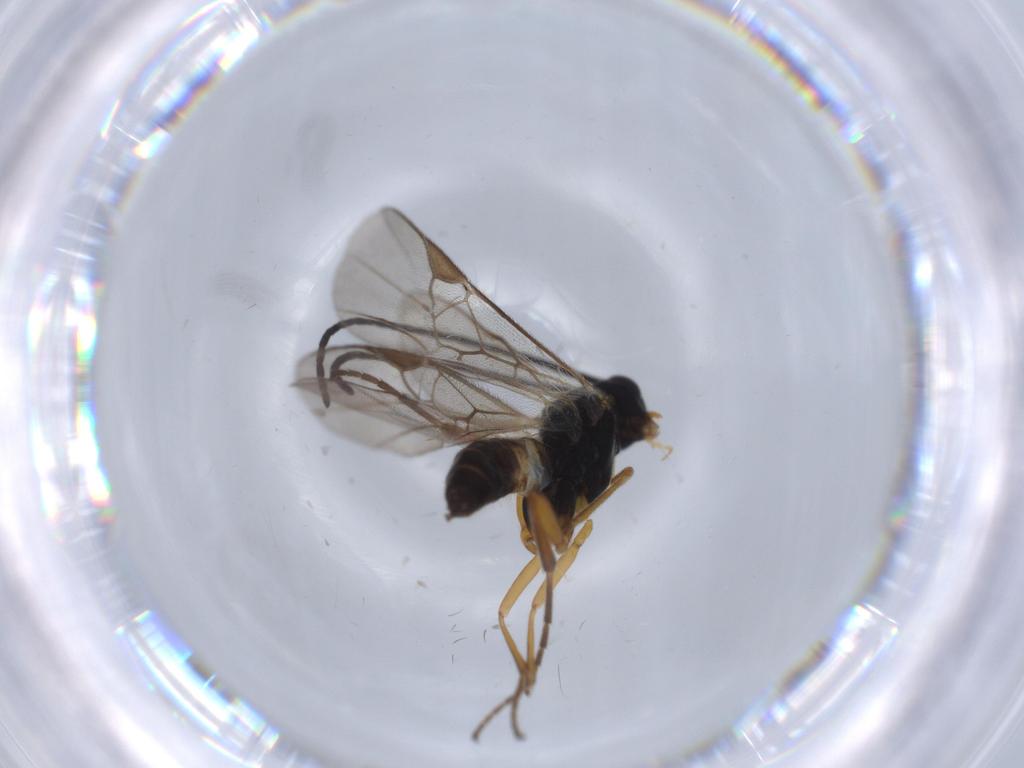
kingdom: Animalia
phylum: Arthropoda
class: Insecta
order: Hymenoptera
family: Braconidae
